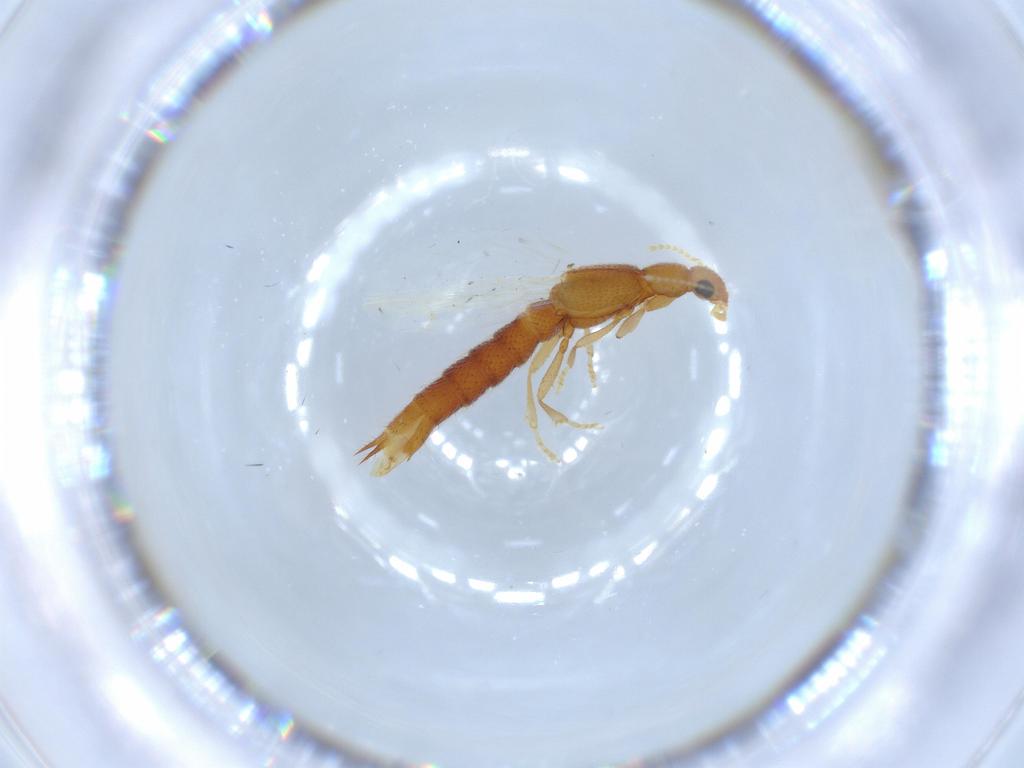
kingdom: Animalia
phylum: Arthropoda
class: Insecta
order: Coleoptera
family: Staphylinidae
